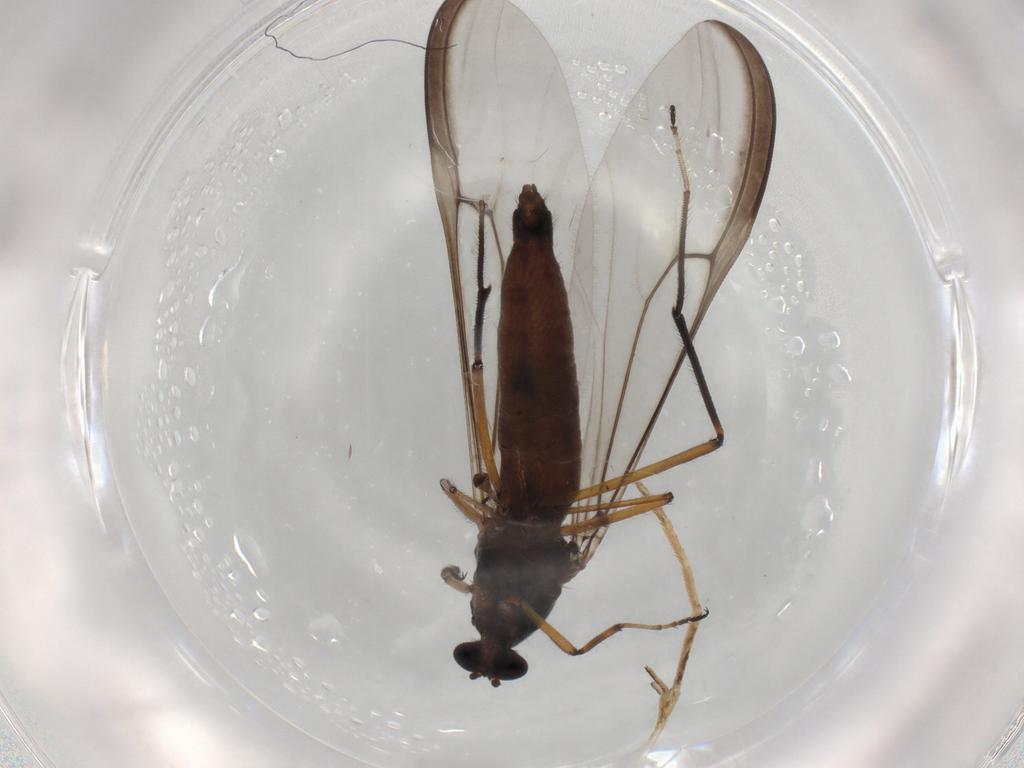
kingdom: Animalia
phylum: Arthropoda
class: Insecta
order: Diptera
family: Ceratopogonidae
